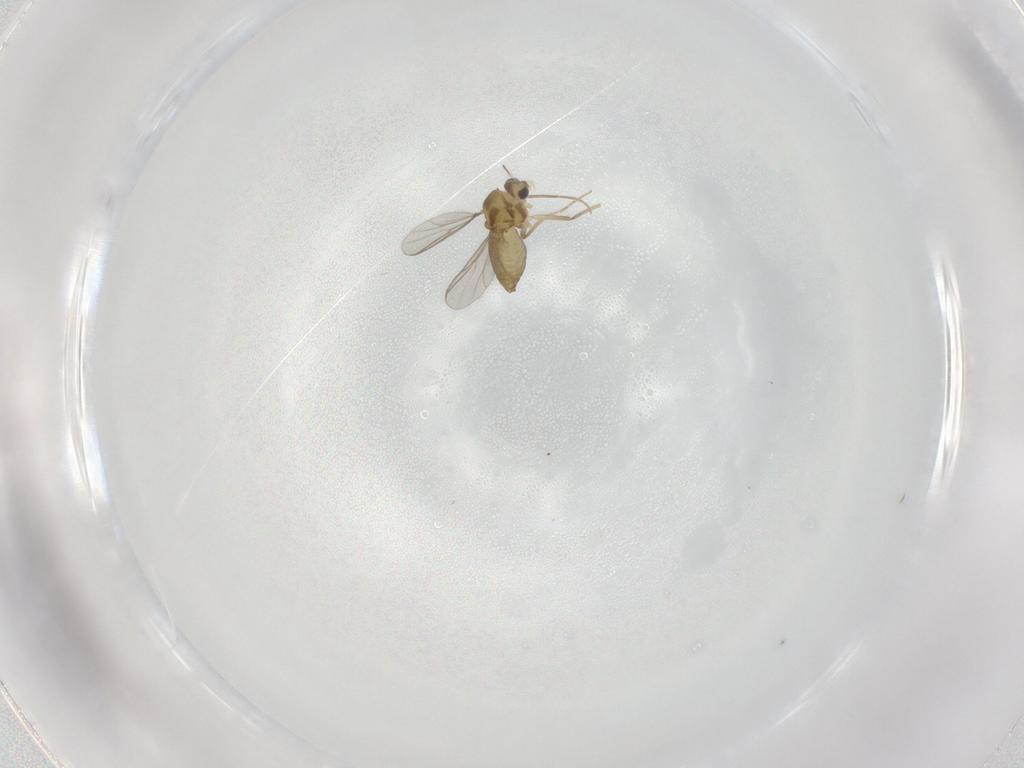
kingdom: Animalia
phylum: Arthropoda
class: Insecta
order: Diptera
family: Chironomidae
